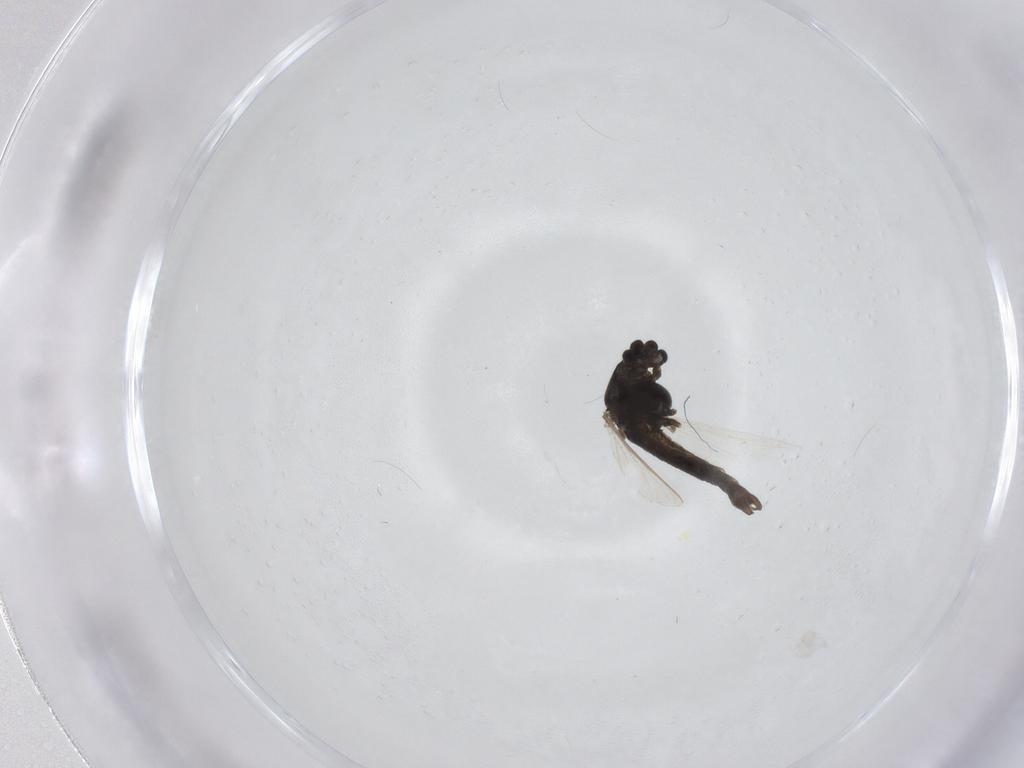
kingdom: Animalia
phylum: Arthropoda
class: Insecta
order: Diptera
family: Chironomidae
